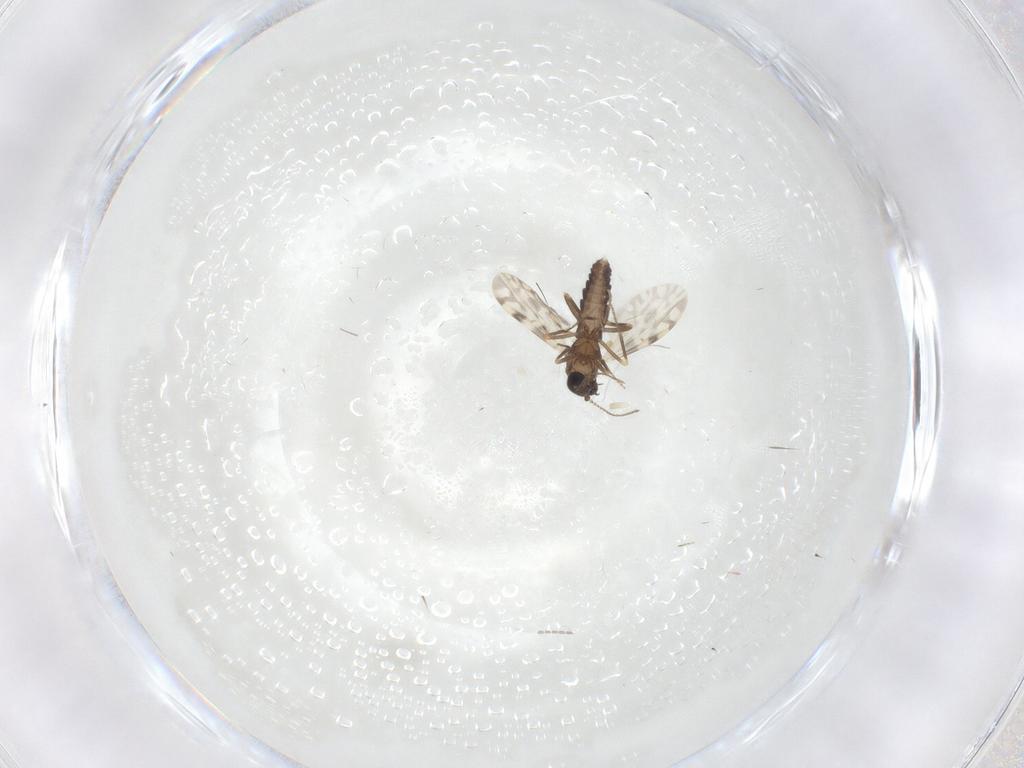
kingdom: Animalia
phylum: Arthropoda
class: Insecta
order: Diptera
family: Ceratopogonidae
